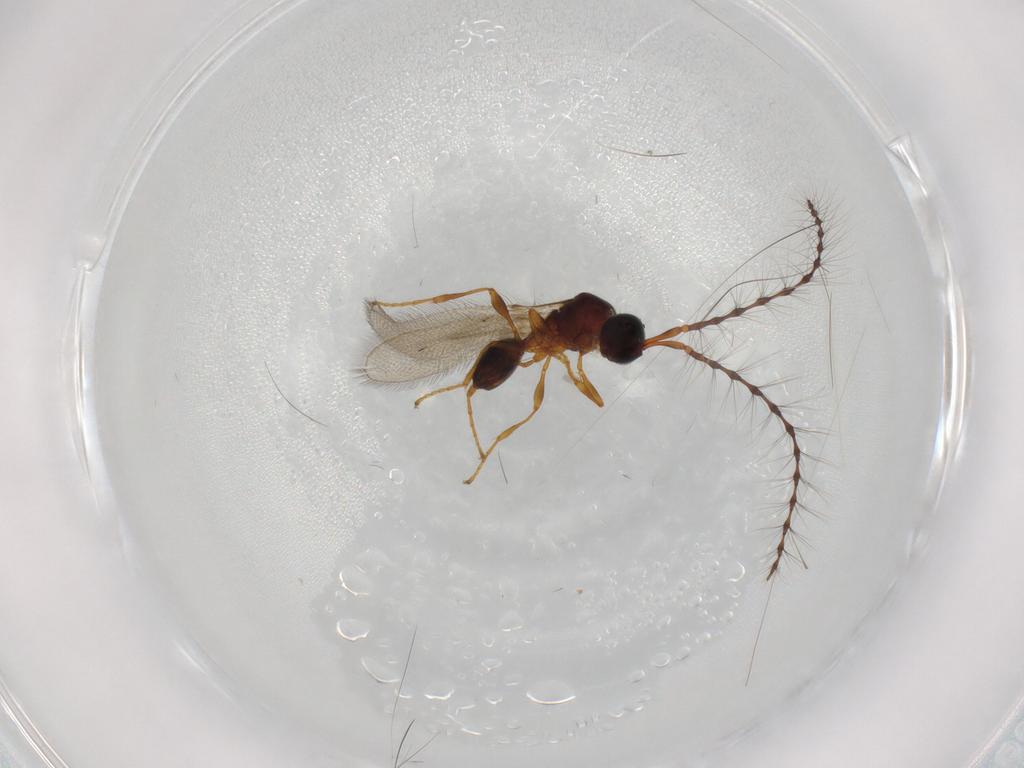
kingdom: Animalia
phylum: Arthropoda
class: Insecta
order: Hymenoptera
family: Diapriidae
